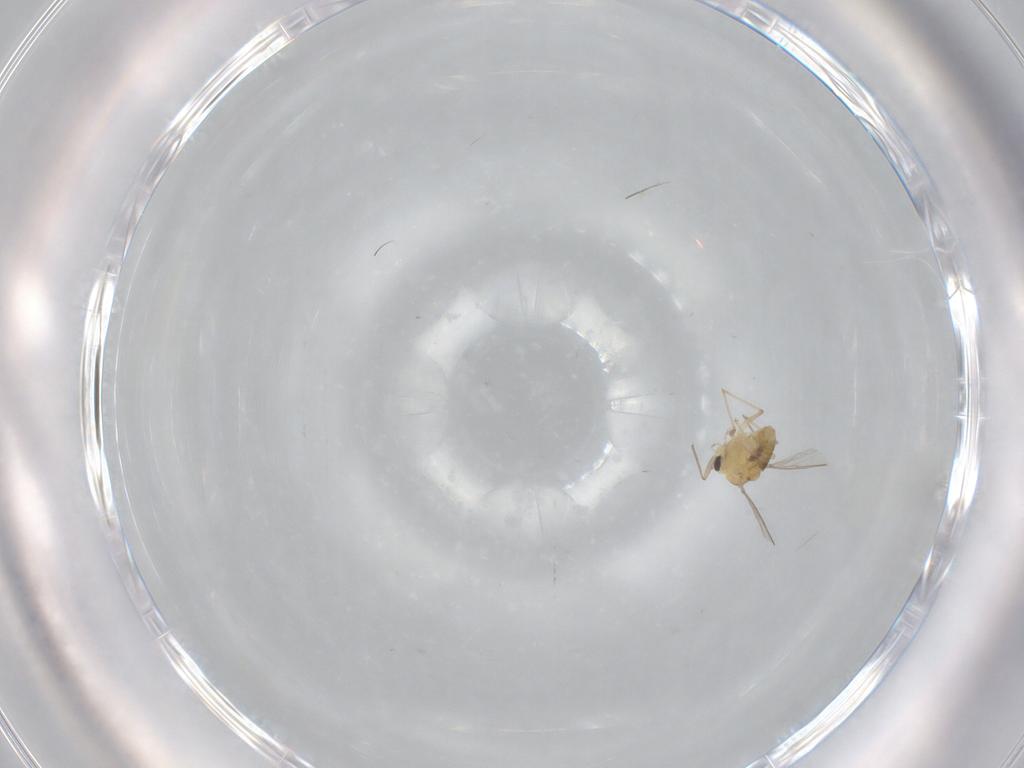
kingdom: Animalia
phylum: Arthropoda
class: Insecta
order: Diptera
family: Chironomidae
